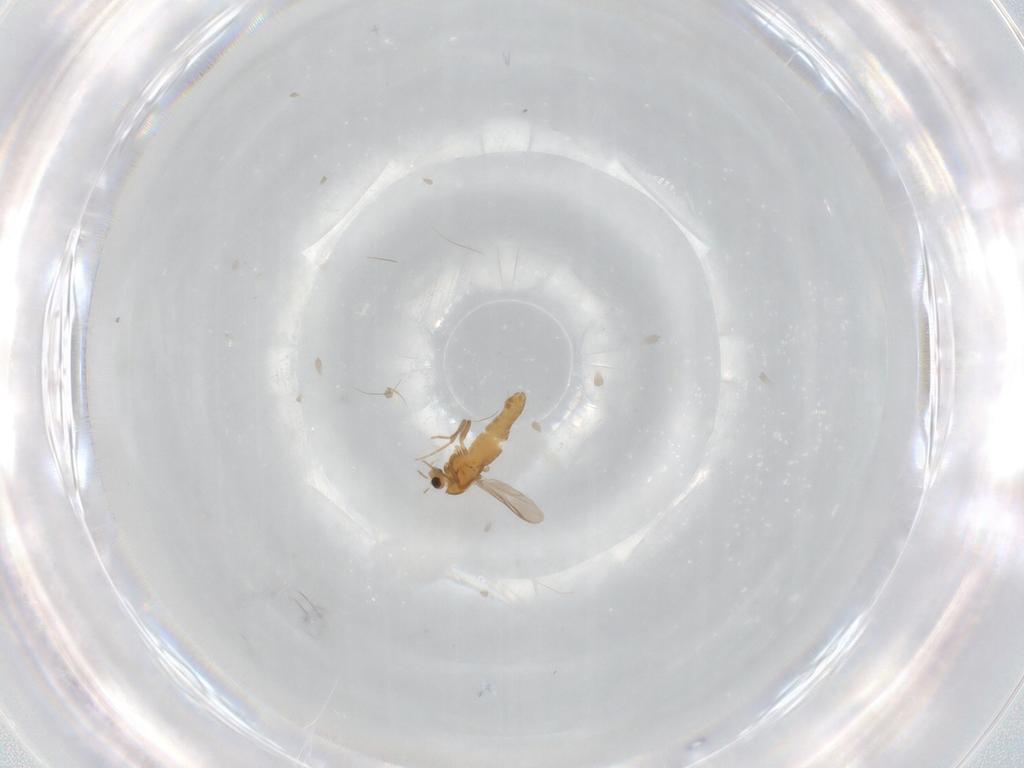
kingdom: Animalia
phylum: Arthropoda
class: Insecta
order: Diptera
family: Chironomidae
